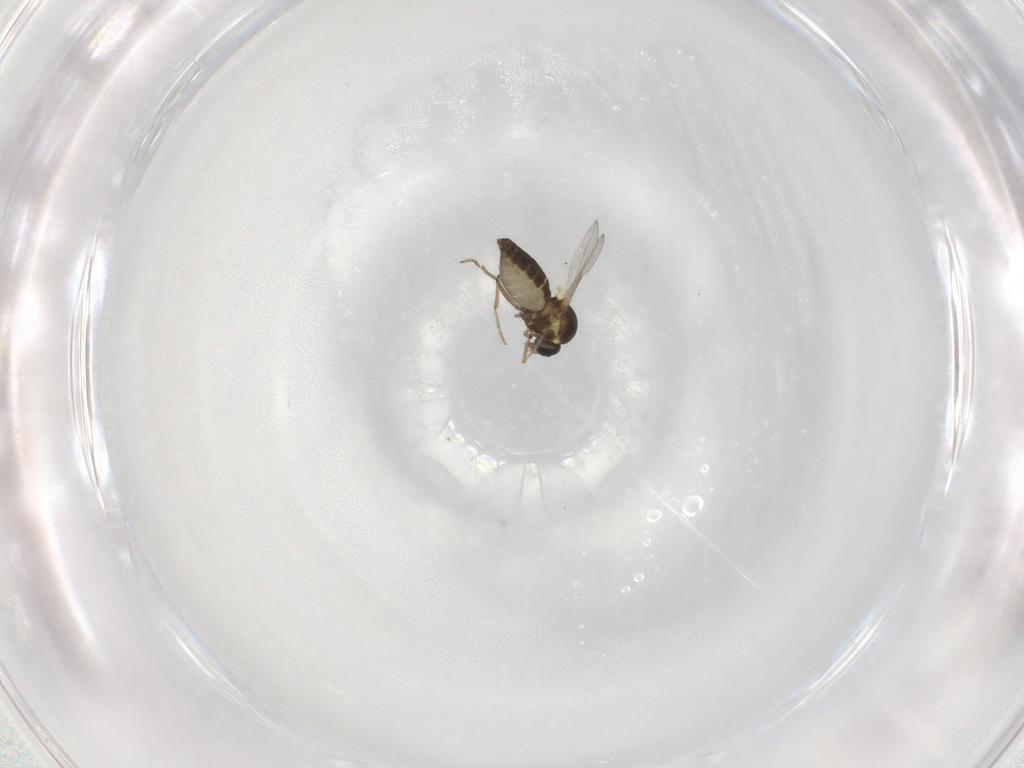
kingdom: Animalia
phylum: Arthropoda
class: Insecta
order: Diptera
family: Ceratopogonidae
